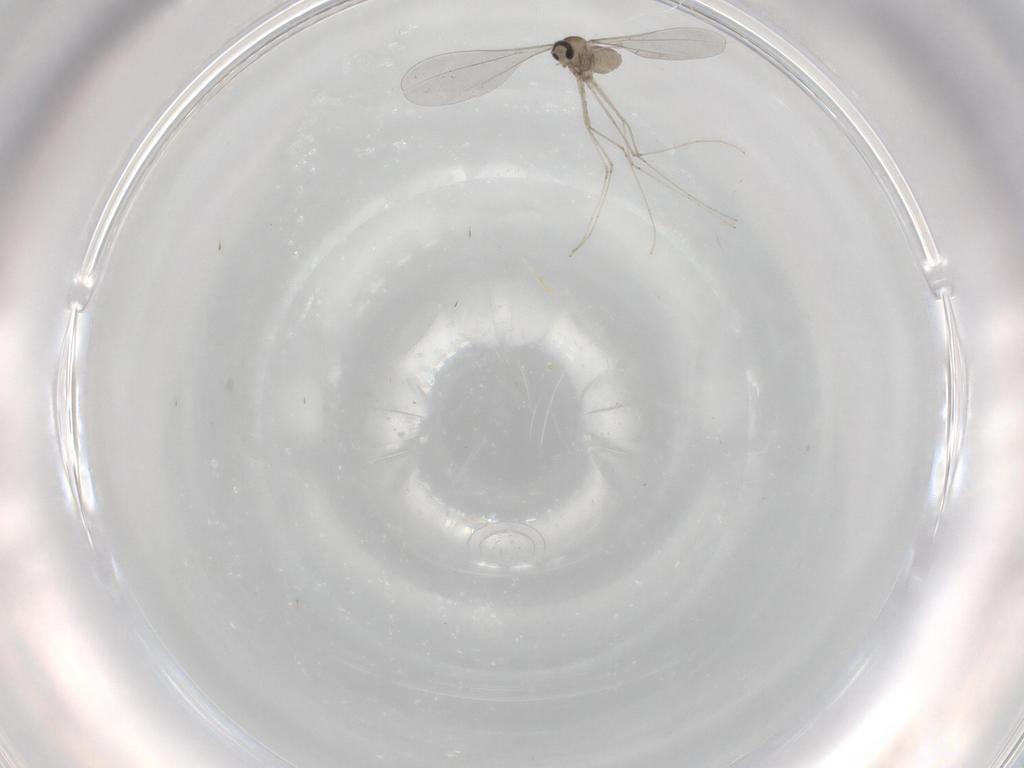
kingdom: Animalia
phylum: Arthropoda
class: Insecta
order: Diptera
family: Cecidomyiidae
